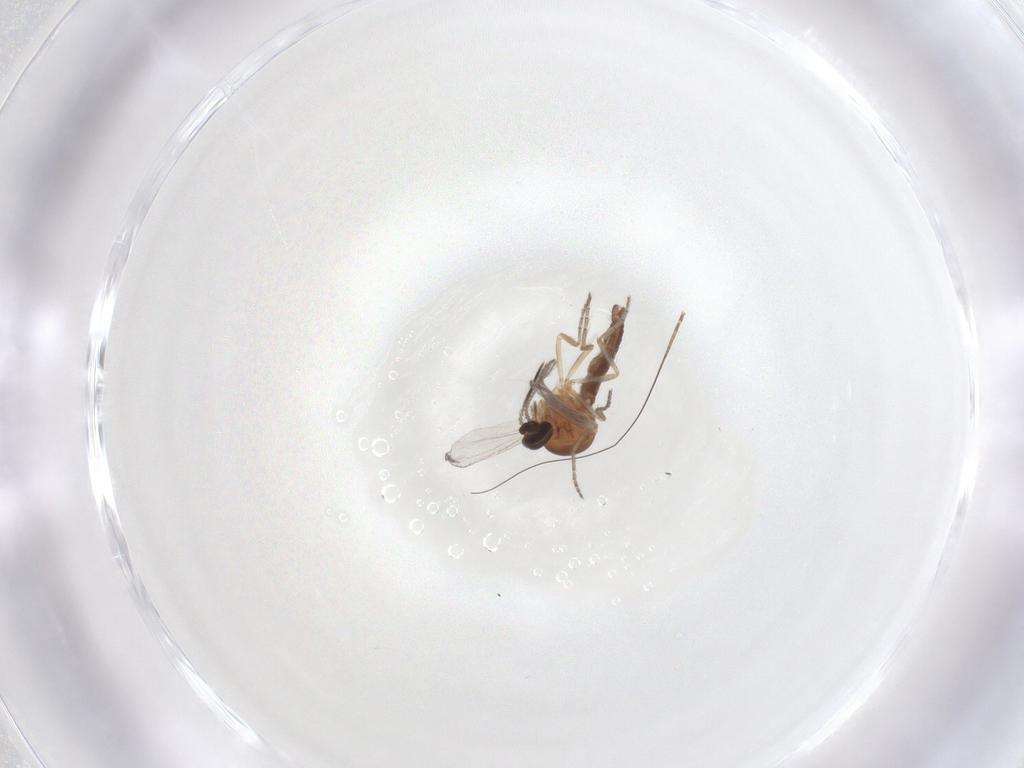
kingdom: Animalia
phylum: Arthropoda
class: Insecta
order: Diptera
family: Ceratopogonidae
